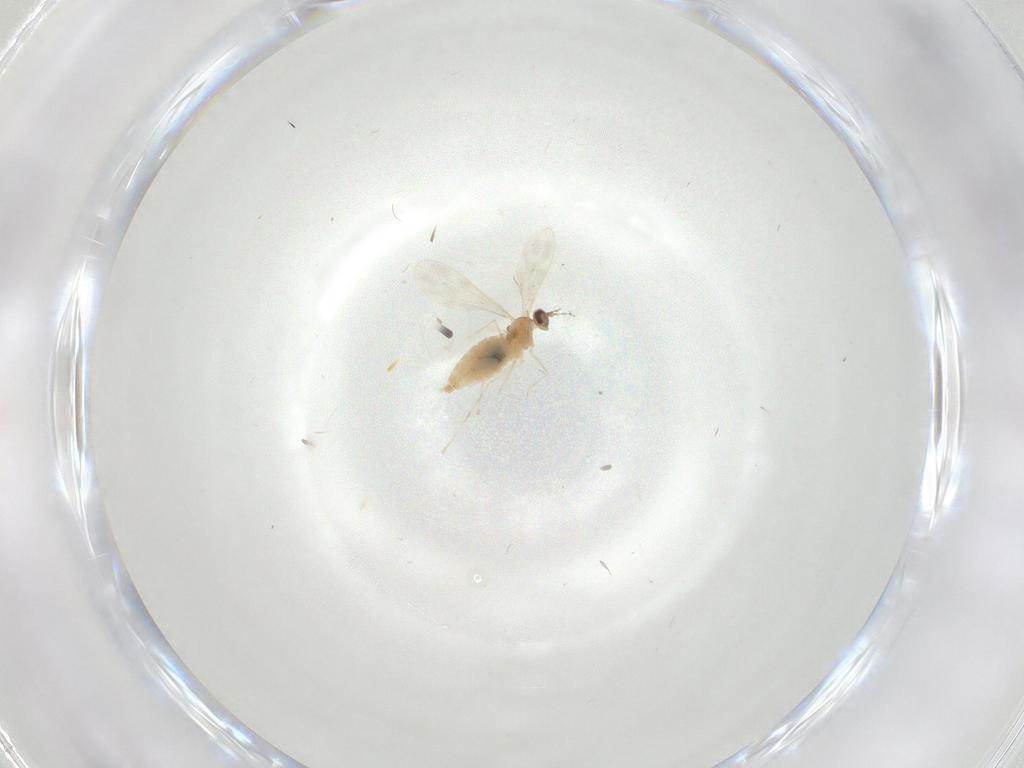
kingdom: Animalia
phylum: Arthropoda
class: Insecta
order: Diptera
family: Cecidomyiidae
